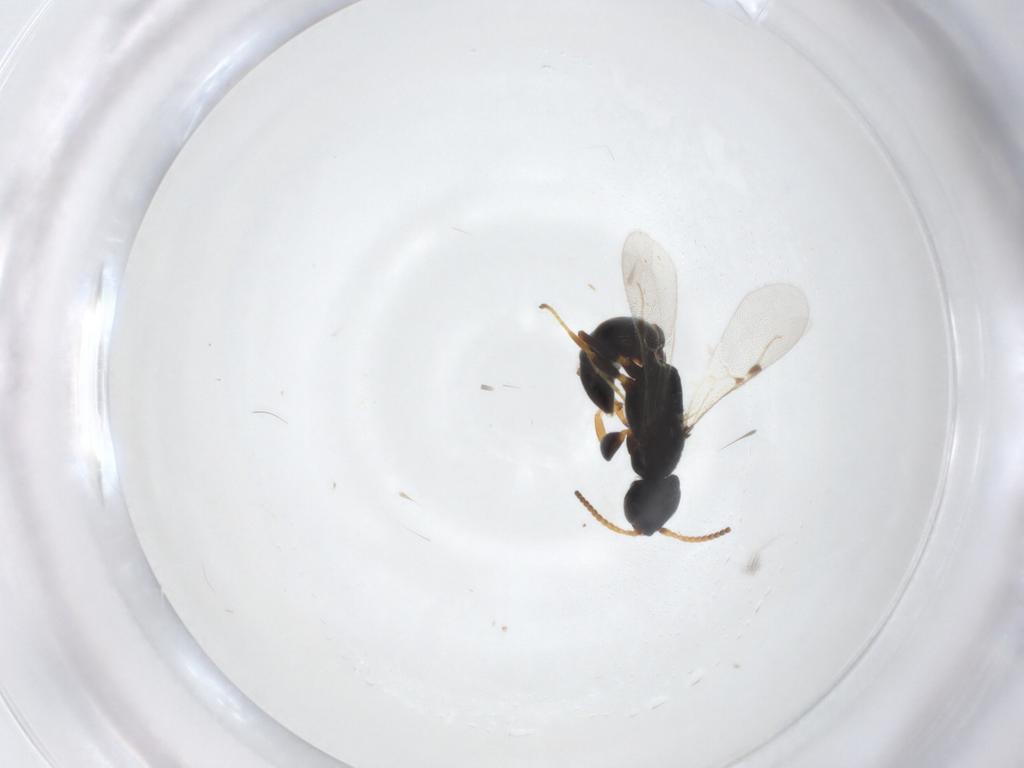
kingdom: Animalia
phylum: Arthropoda
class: Insecta
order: Hymenoptera
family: Bethylidae
